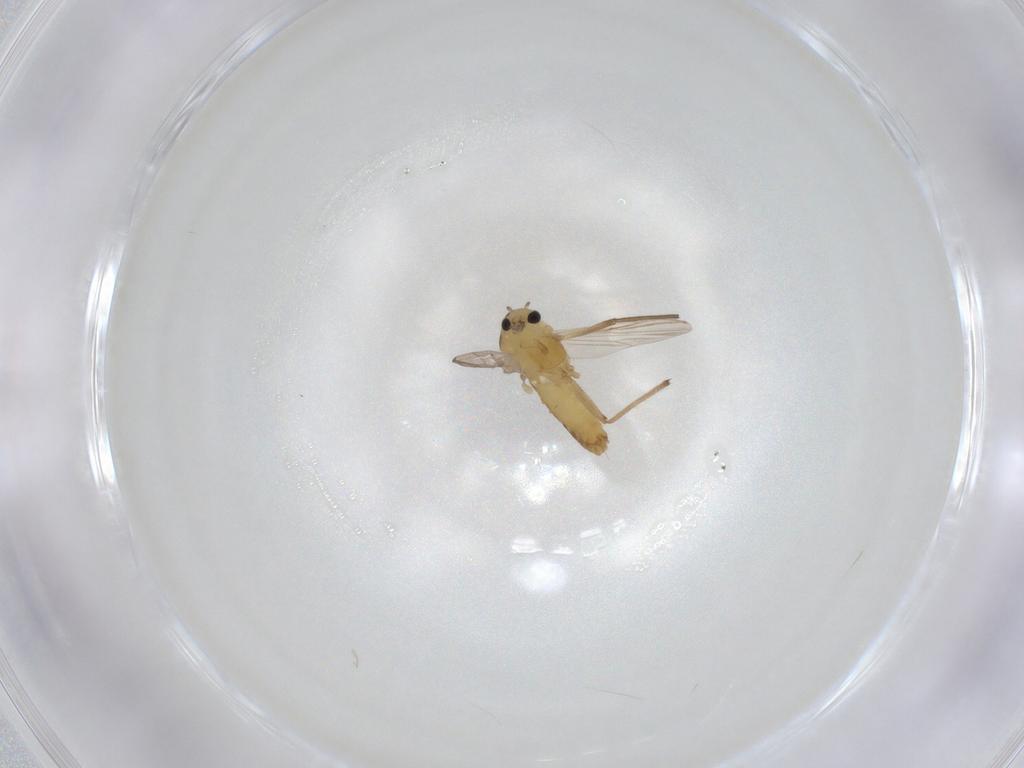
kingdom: Animalia
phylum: Arthropoda
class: Insecta
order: Diptera
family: Chironomidae
